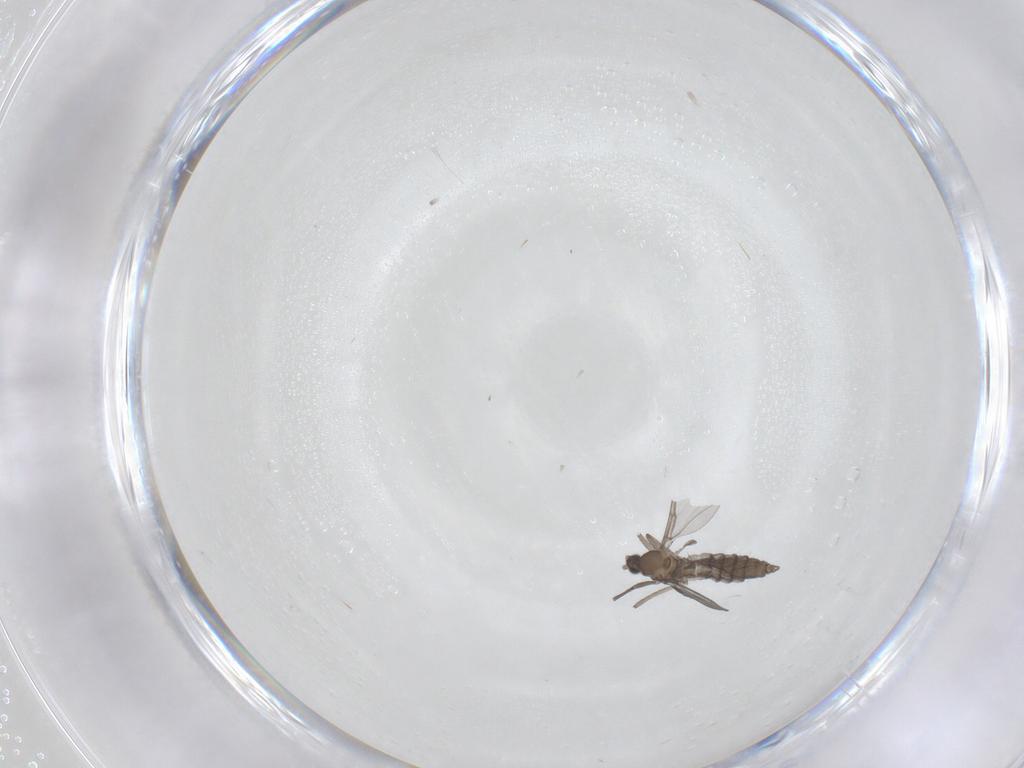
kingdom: Animalia
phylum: Arthropoda
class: Insecta
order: Diptera
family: Cecidomyiidae
